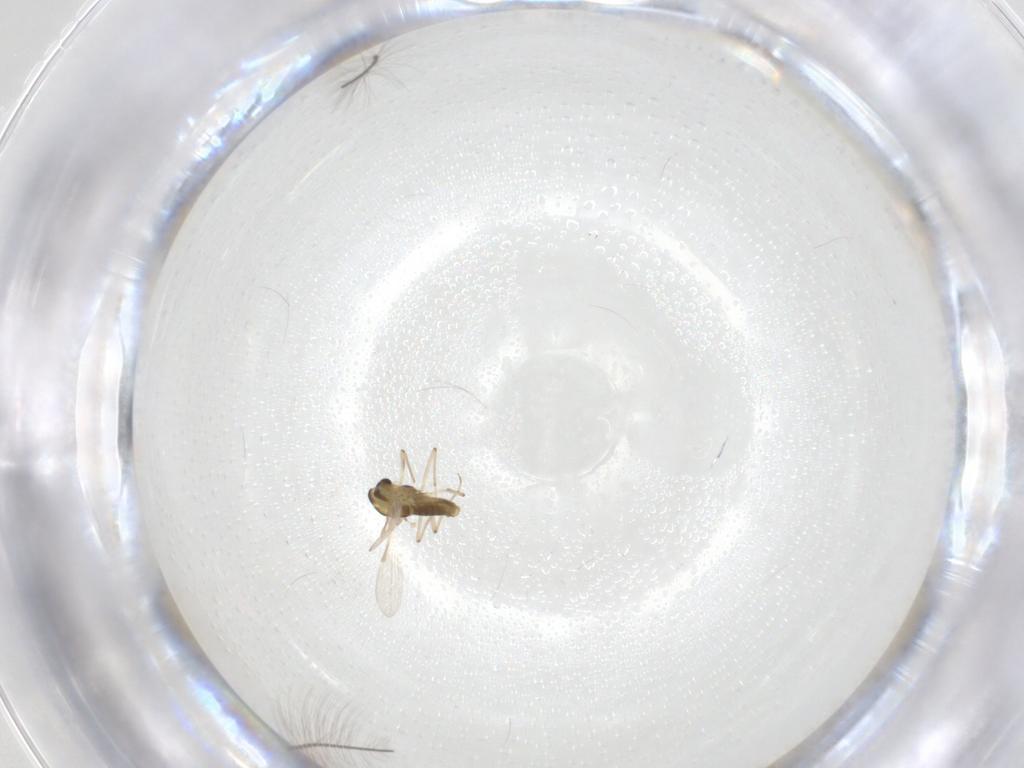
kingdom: Animalia
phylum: Arthropoda
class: Insecta
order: Diptera
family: Chironomidae
